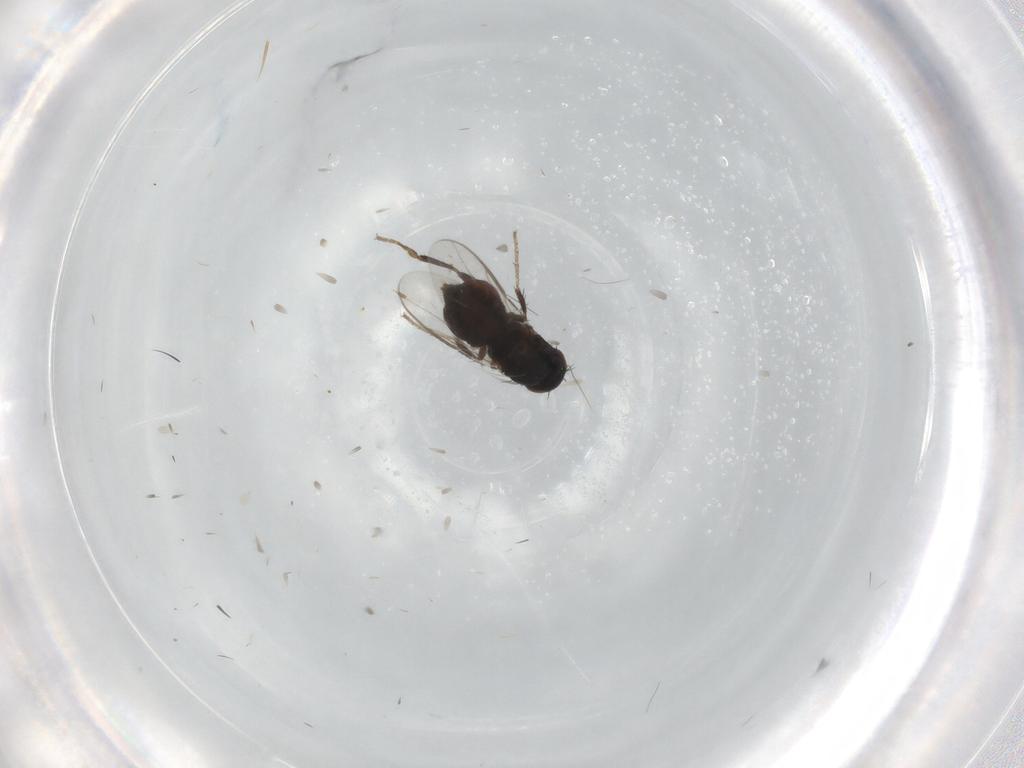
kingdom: Animalia
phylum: Arthropoda
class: Insecta
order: Diptera
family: Sphaeroceridae
